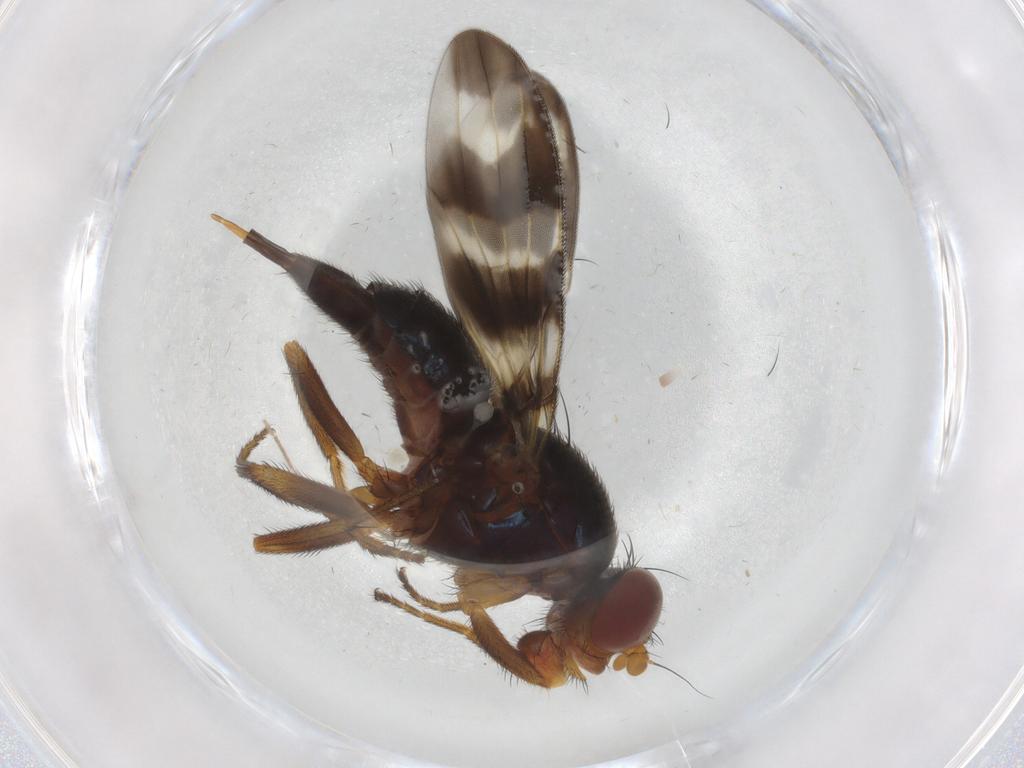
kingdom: Animalia
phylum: Arthropoda
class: Insecta
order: Diptera
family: Ulidiidae
